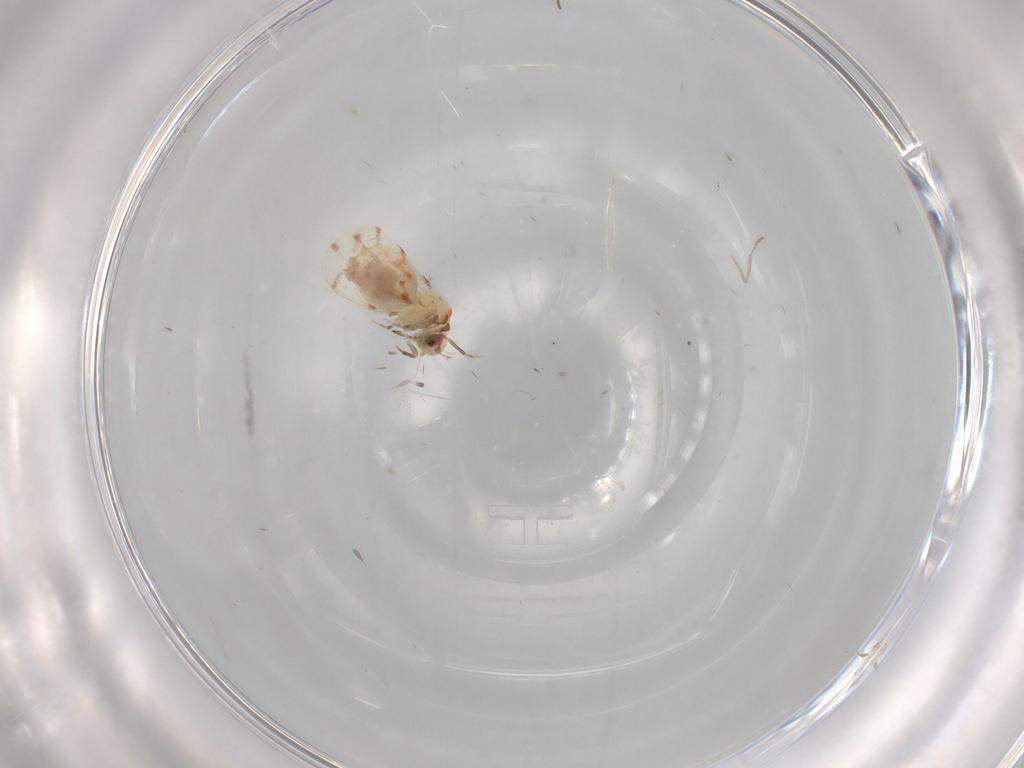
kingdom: Animalia
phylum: Arthropoda
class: Insecta
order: Hemiptera
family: Aleyrodidae
